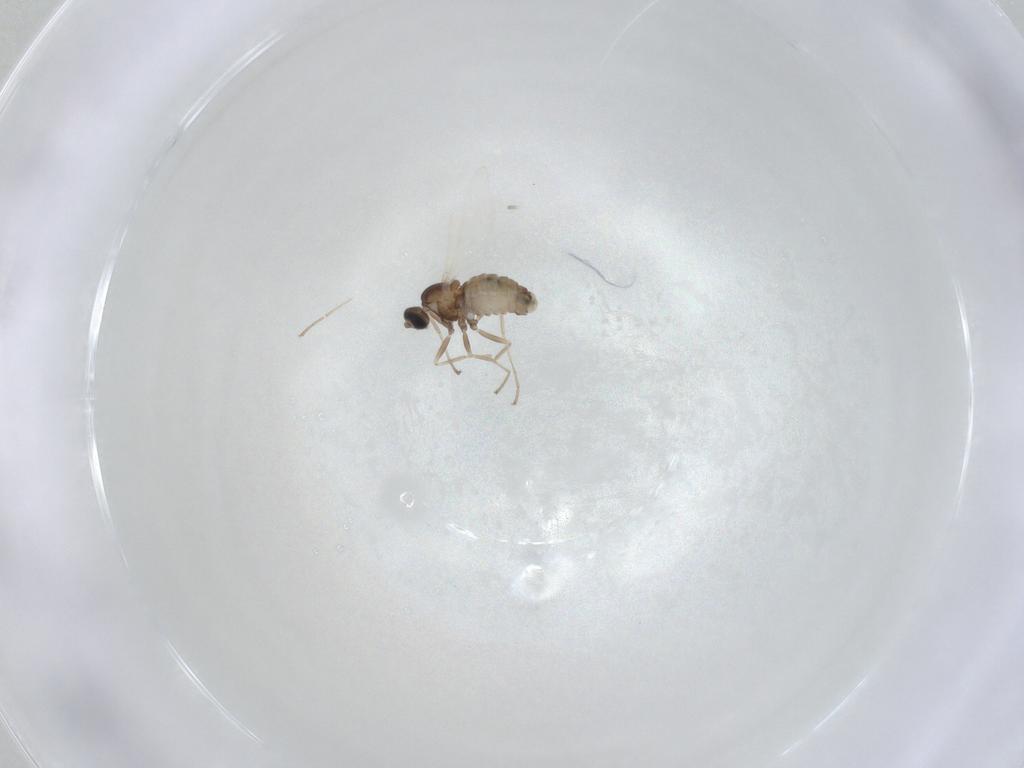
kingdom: Animalia
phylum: Arthropoda
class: Insecta
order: Diptera
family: Cecidomyiidae
